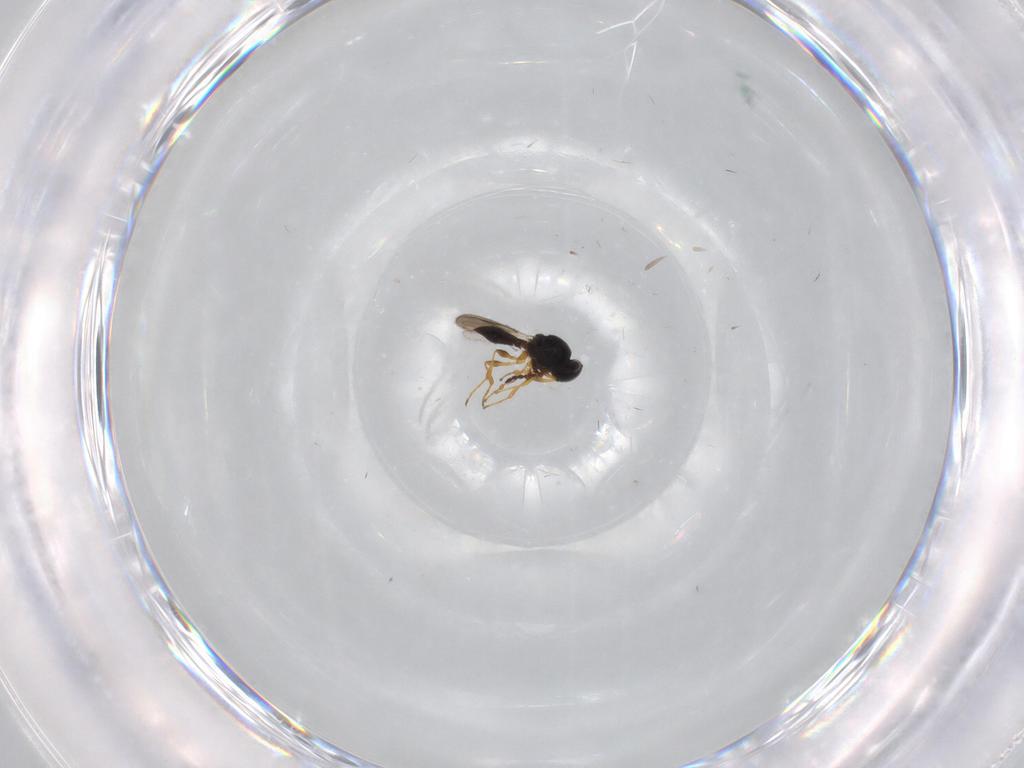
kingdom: Animalia
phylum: Arthropoda
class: Insecta
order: Hymenoptera
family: Platygastridae
